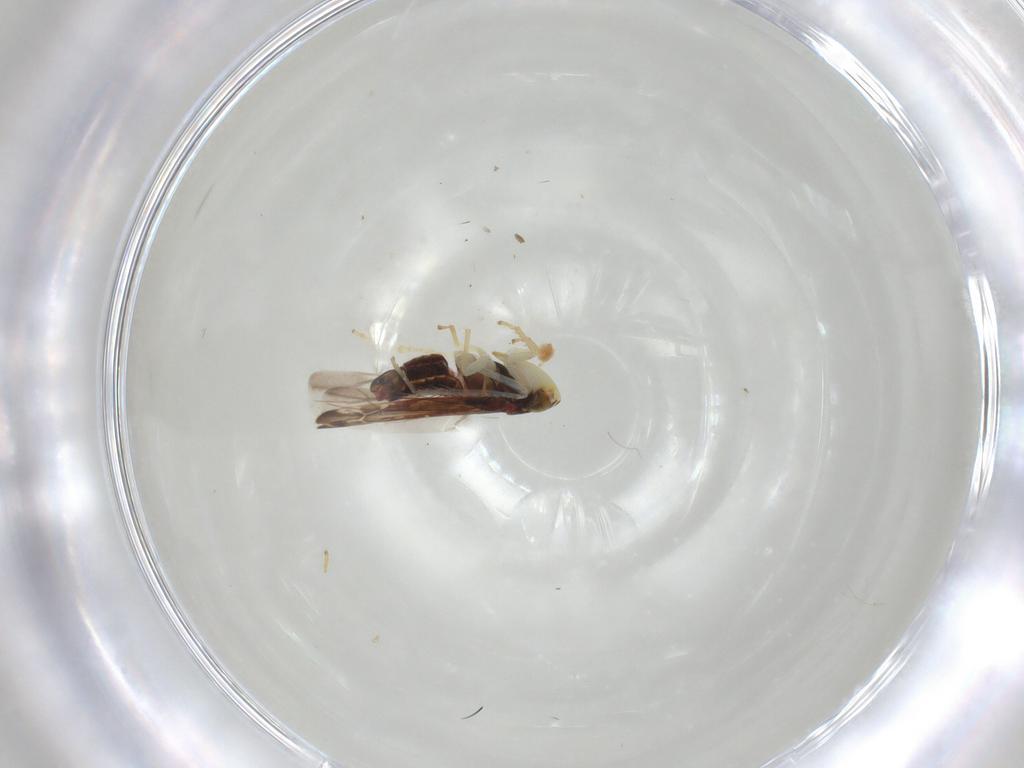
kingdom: Animalia
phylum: Arthropoda
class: Insecta
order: Hemiptera
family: Cicadellidae
